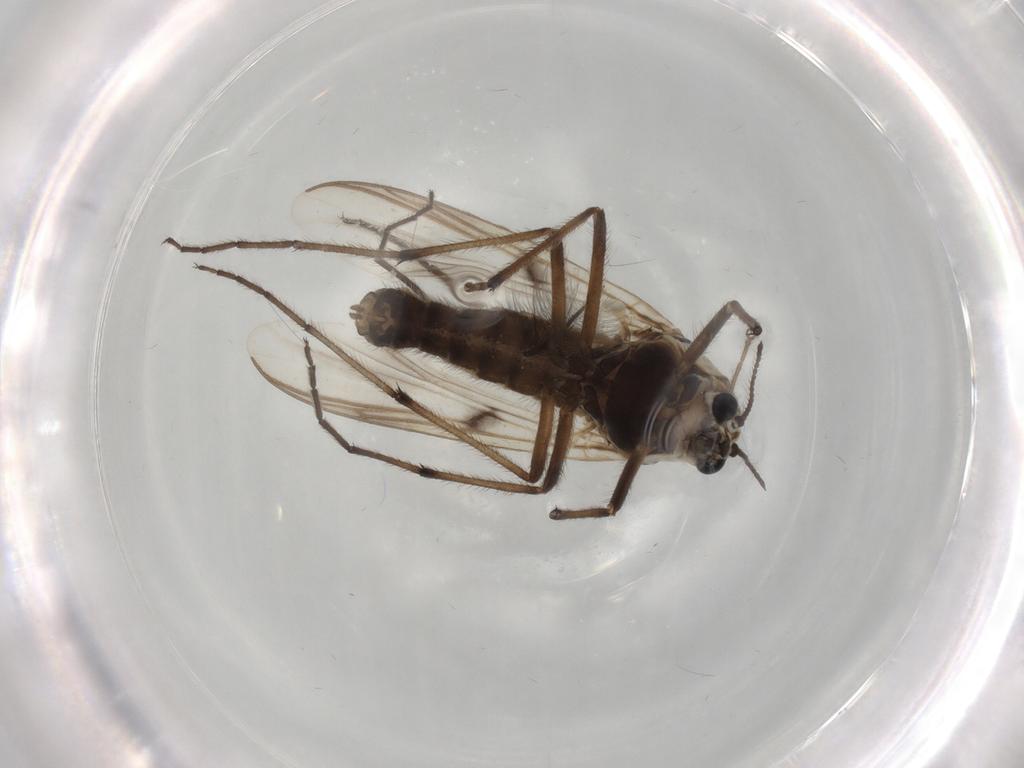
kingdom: Animalia
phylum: Arthropoda
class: Insecta
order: Diptera
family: Chironomidae
